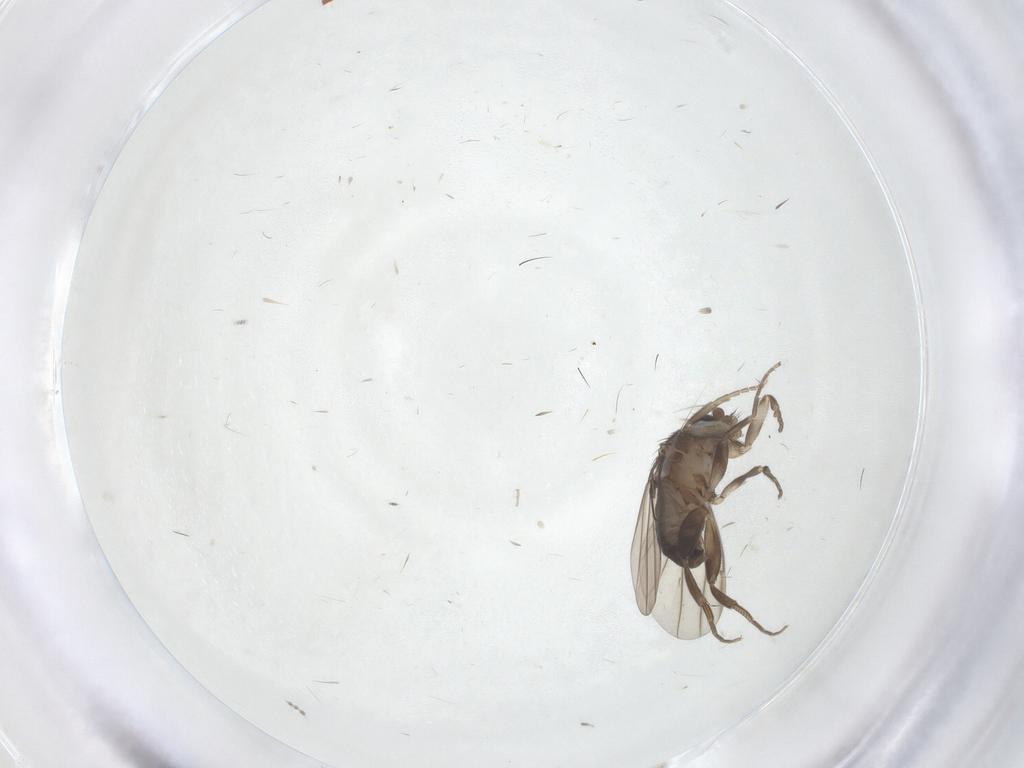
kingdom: Animalia
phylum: Arthropoda
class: Insecta
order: Diptera
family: Phoridae
